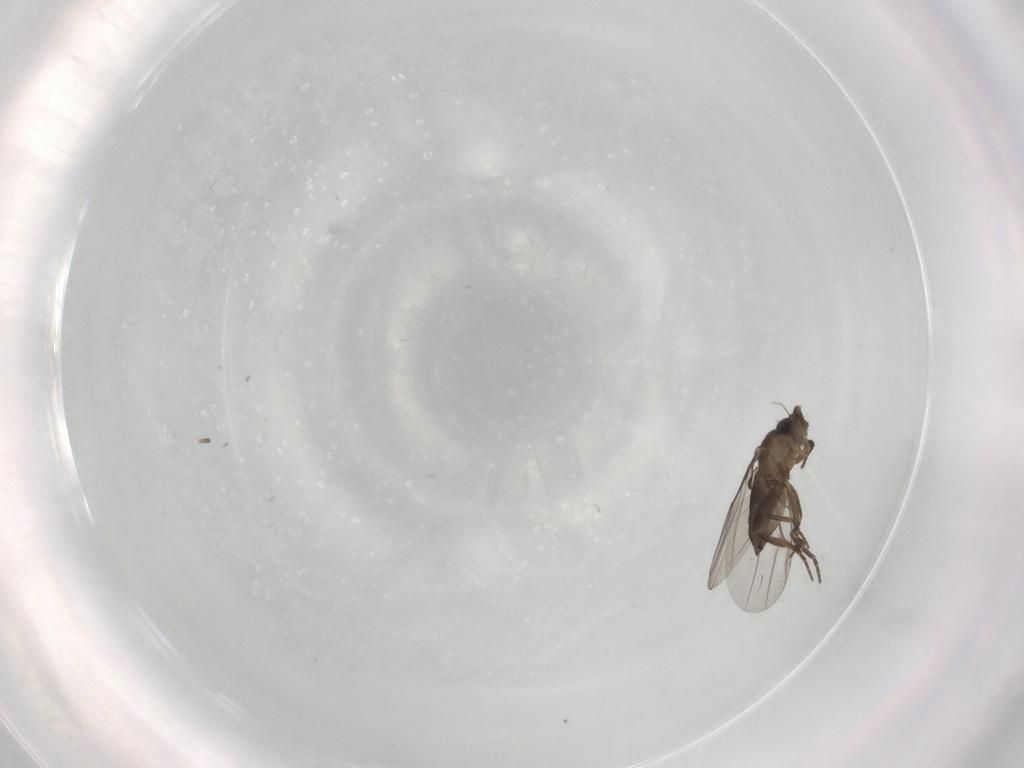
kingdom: Animalia
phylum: Arthropoda
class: Insecta
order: Diptera
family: Phoridae
